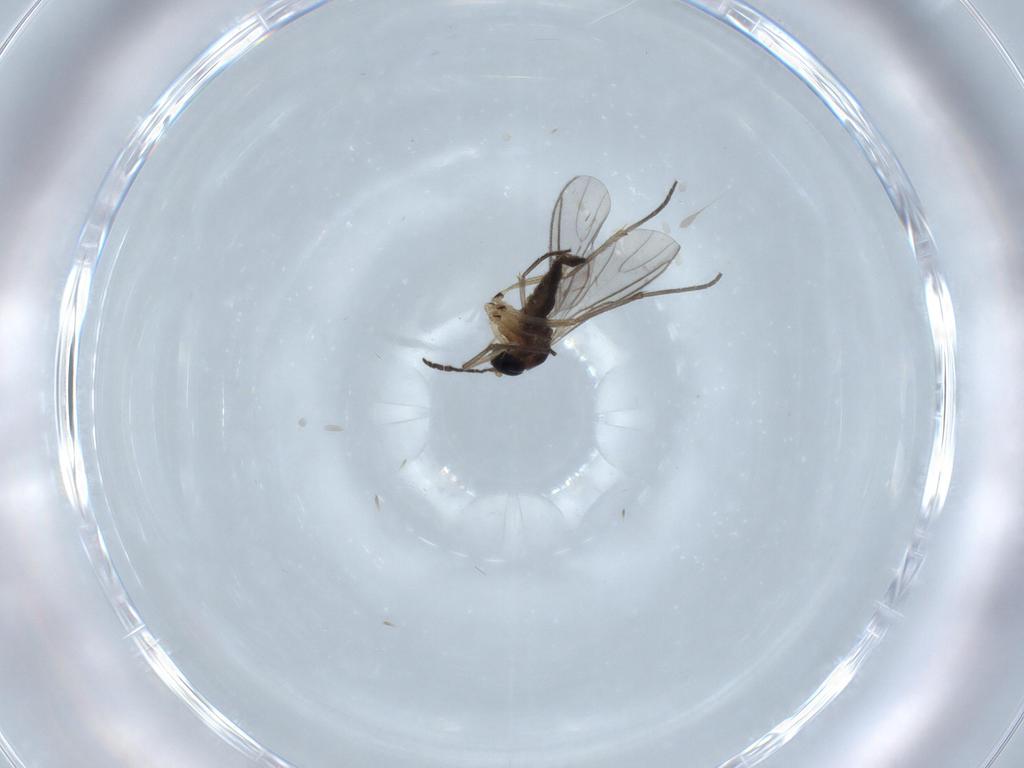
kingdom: Animalia
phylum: Arthropoda
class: Insecta
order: Diptera
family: Sciaridae
